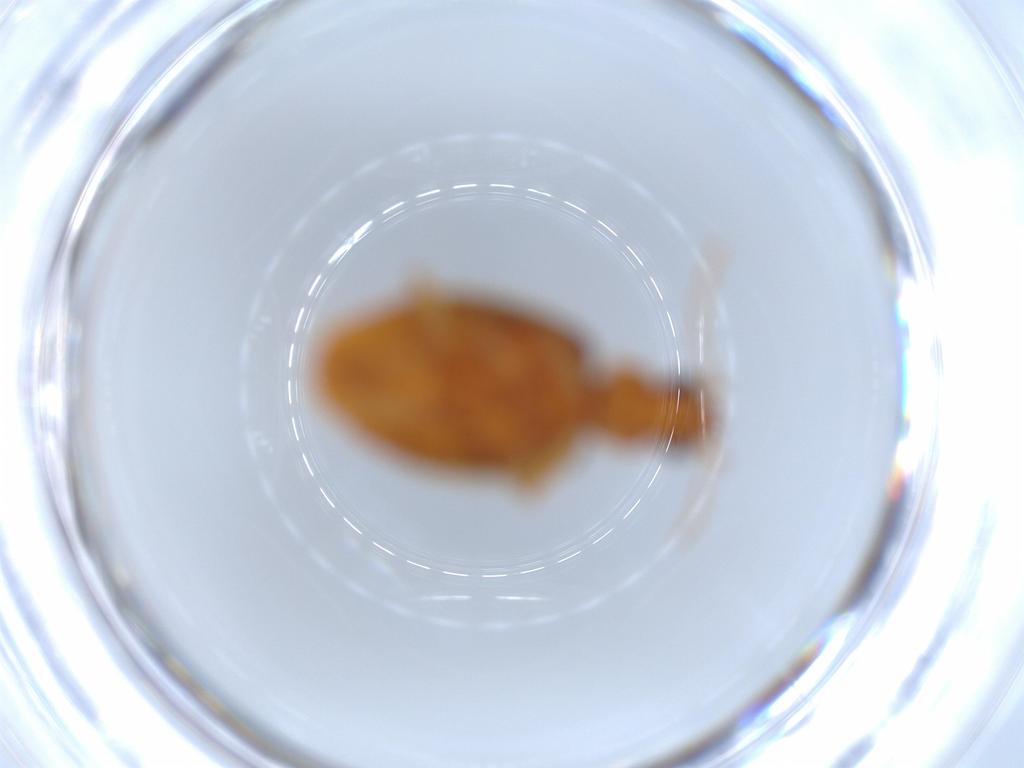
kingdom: Animalia
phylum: Arthropoda
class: Insecta
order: Coleoptera
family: Carabidae
